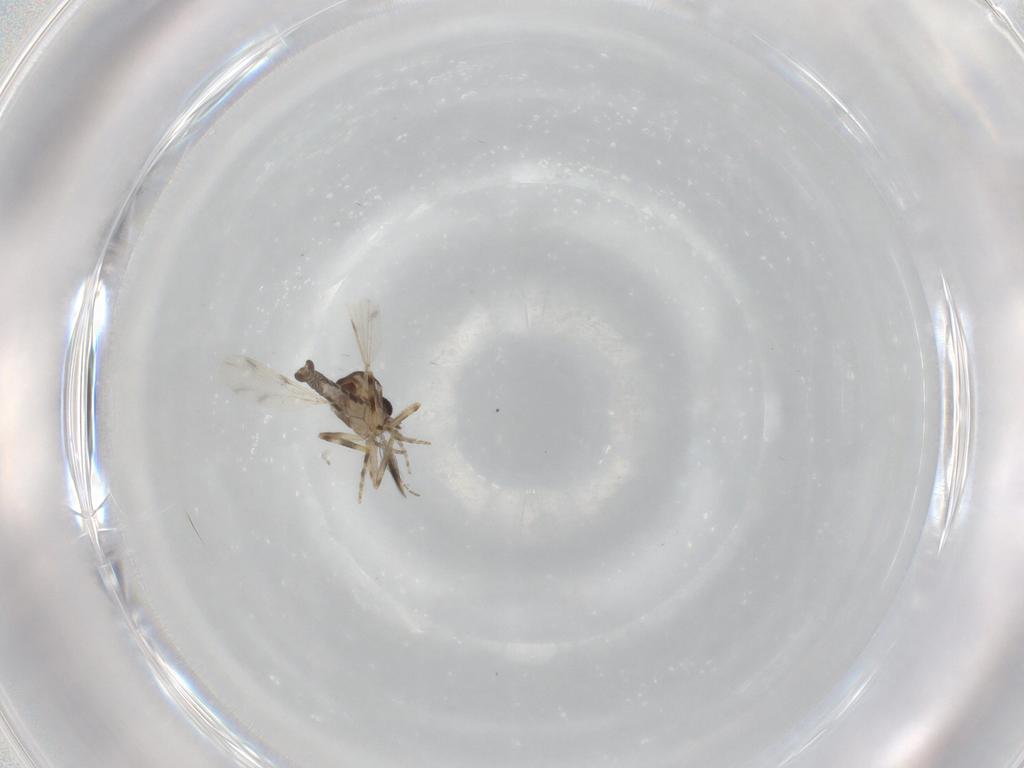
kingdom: Animalia
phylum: Arthropoda
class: Insecta
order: Diptera
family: Ceratopogonidae
